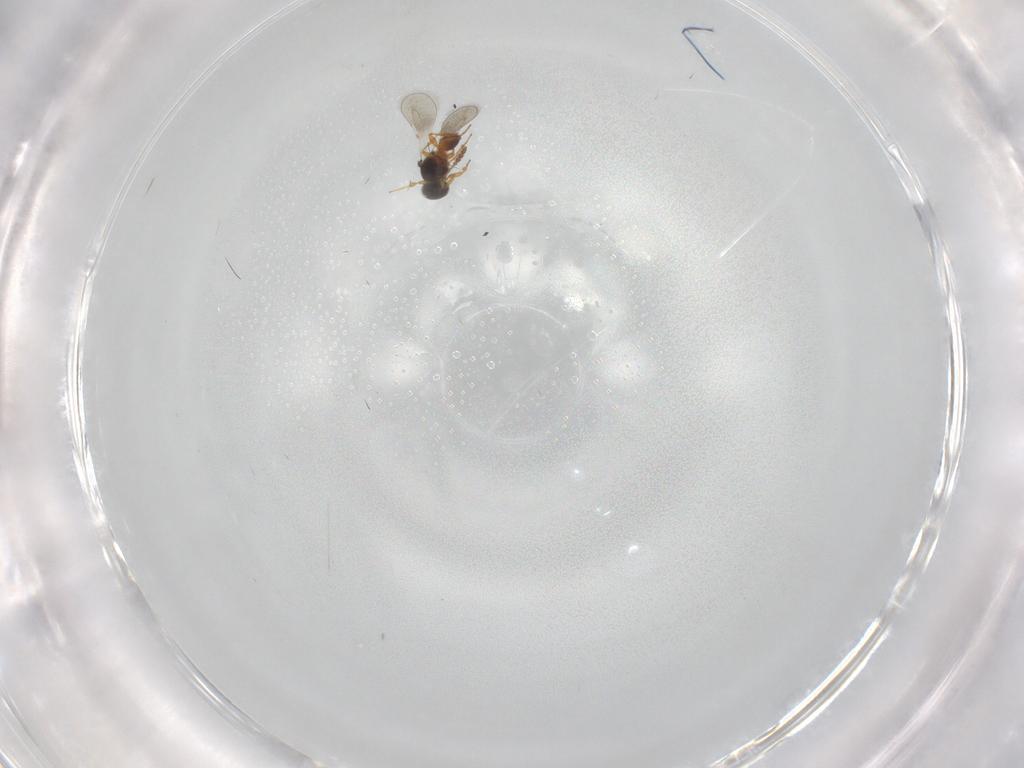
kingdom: Animalia
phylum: Arthropoda
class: Insecta
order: Hymenoptera
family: Platygastridae
